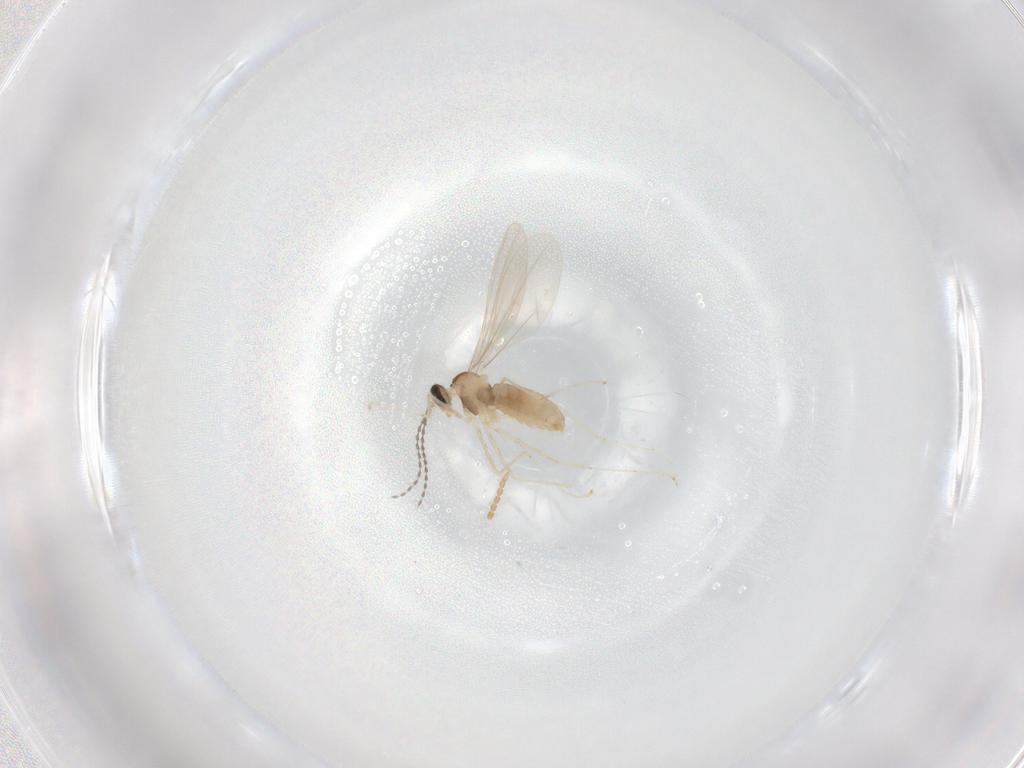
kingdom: Animalia
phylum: Arthropoda
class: Insecta
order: Diptera
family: Cecidomyiidae
